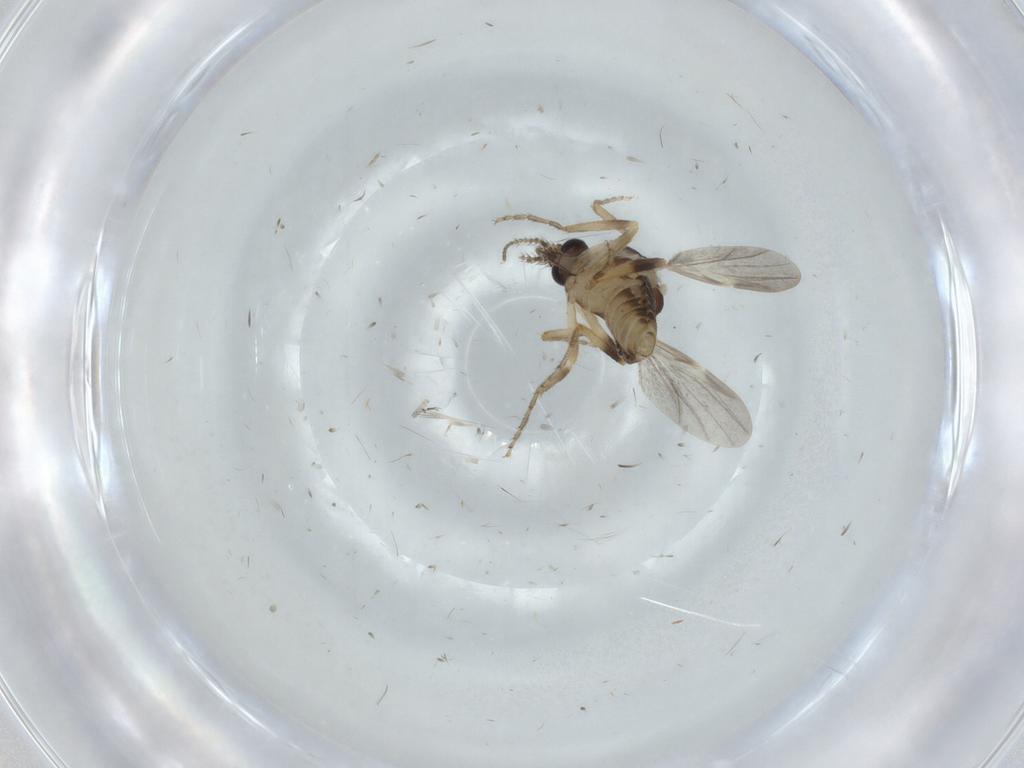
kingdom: Animalia
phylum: Arthropoda
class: Insecta
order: Diptera
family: Ceratopogonidae
